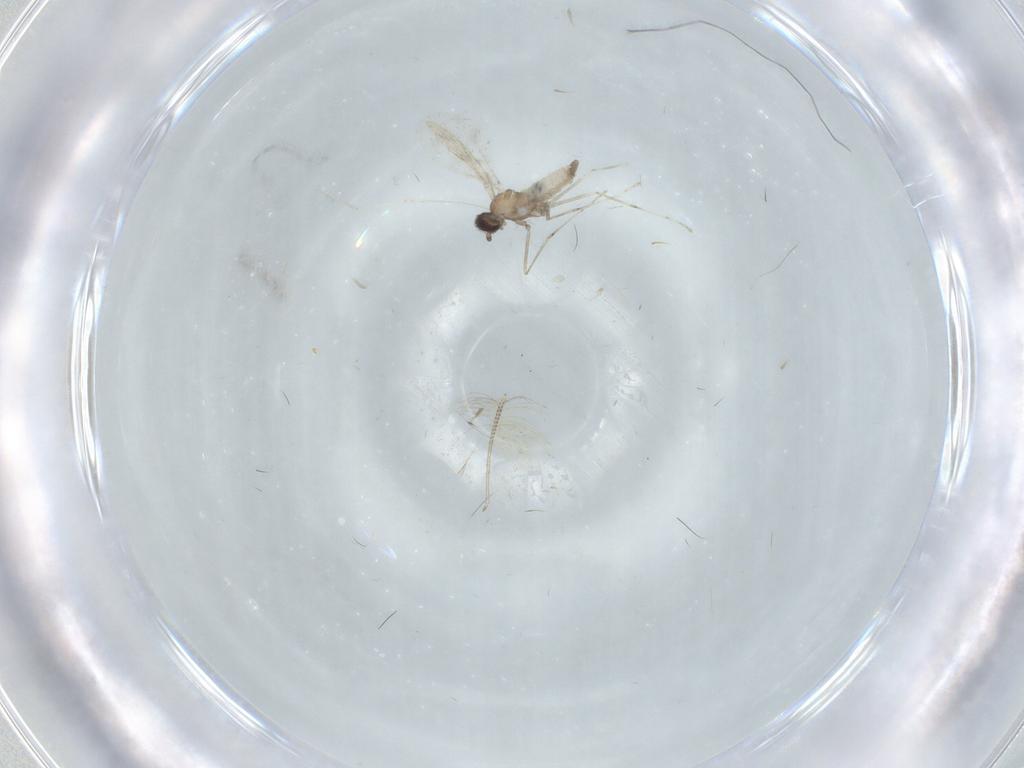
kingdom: Animalia
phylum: Arthropoda
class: Insecta
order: Diptera
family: Cecidomyiidae
